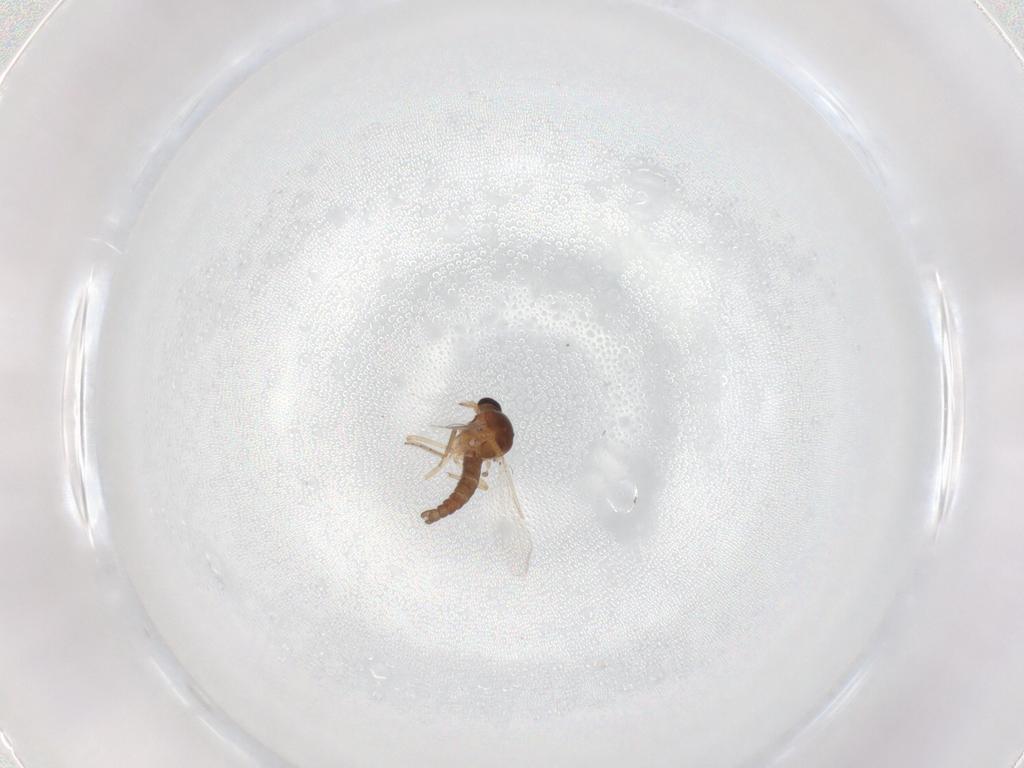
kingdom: Animalia
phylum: Arthropoda
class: Insecta
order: Diptera
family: Ceratopogonidae
